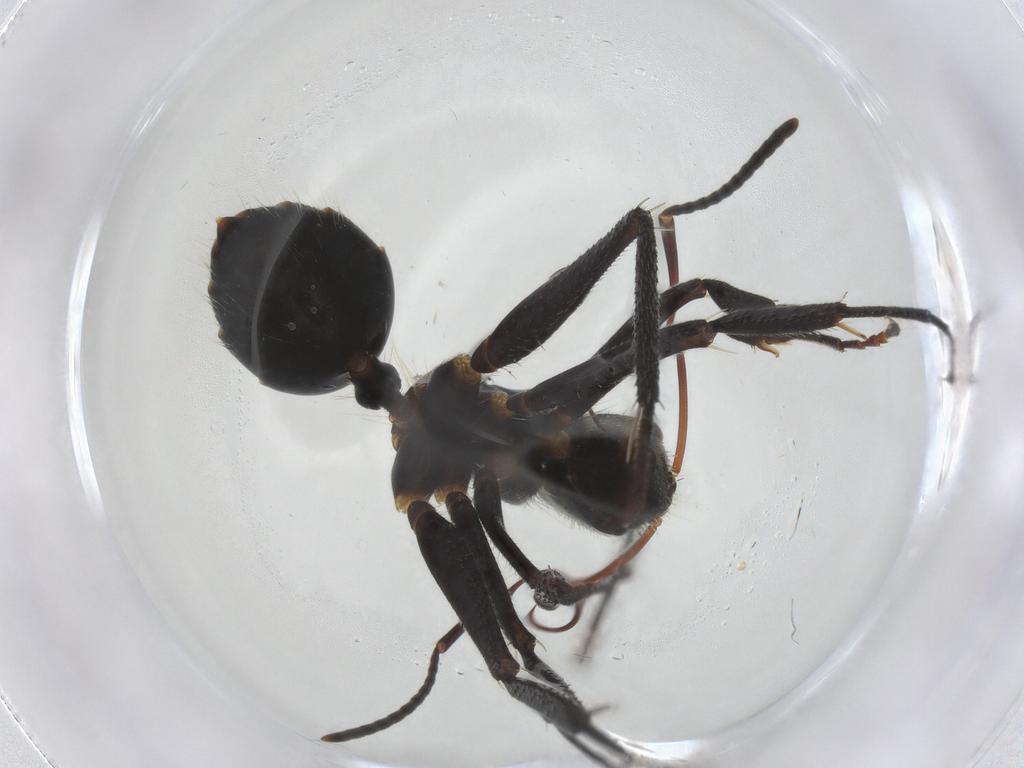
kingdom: Animalia
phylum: Arthropoda
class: Insecta
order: Hymenoptera
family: Formicidae
